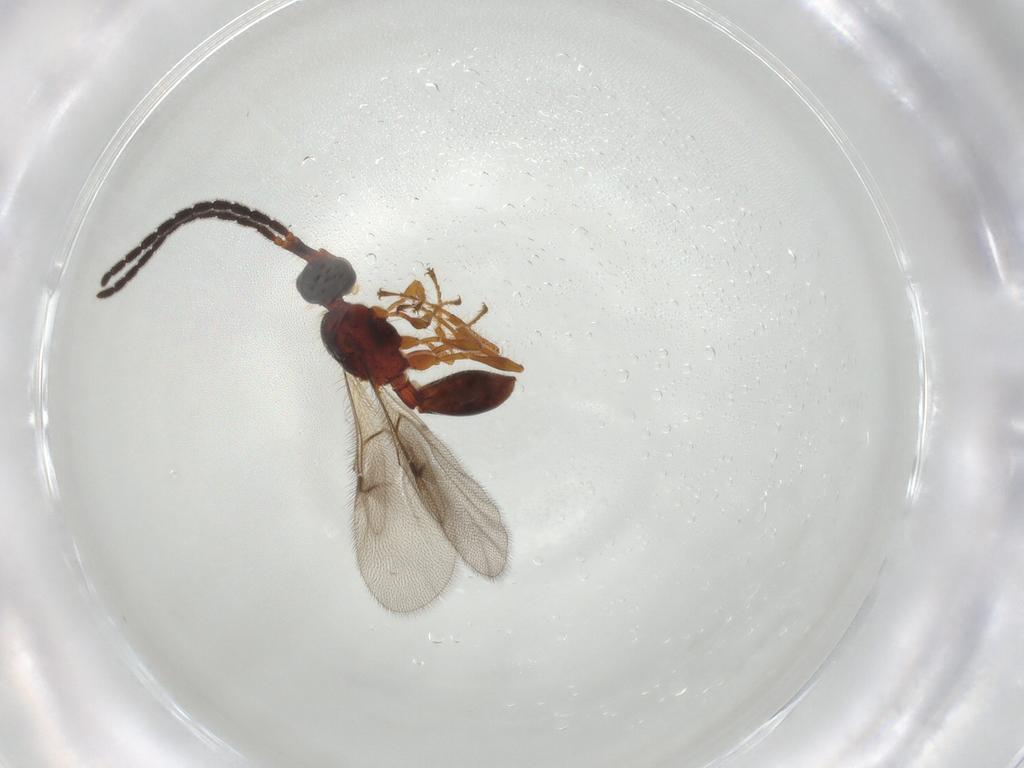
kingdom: Animalia
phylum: Arthropoda
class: Insecta
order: Hymenoptera
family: Diapriidae
